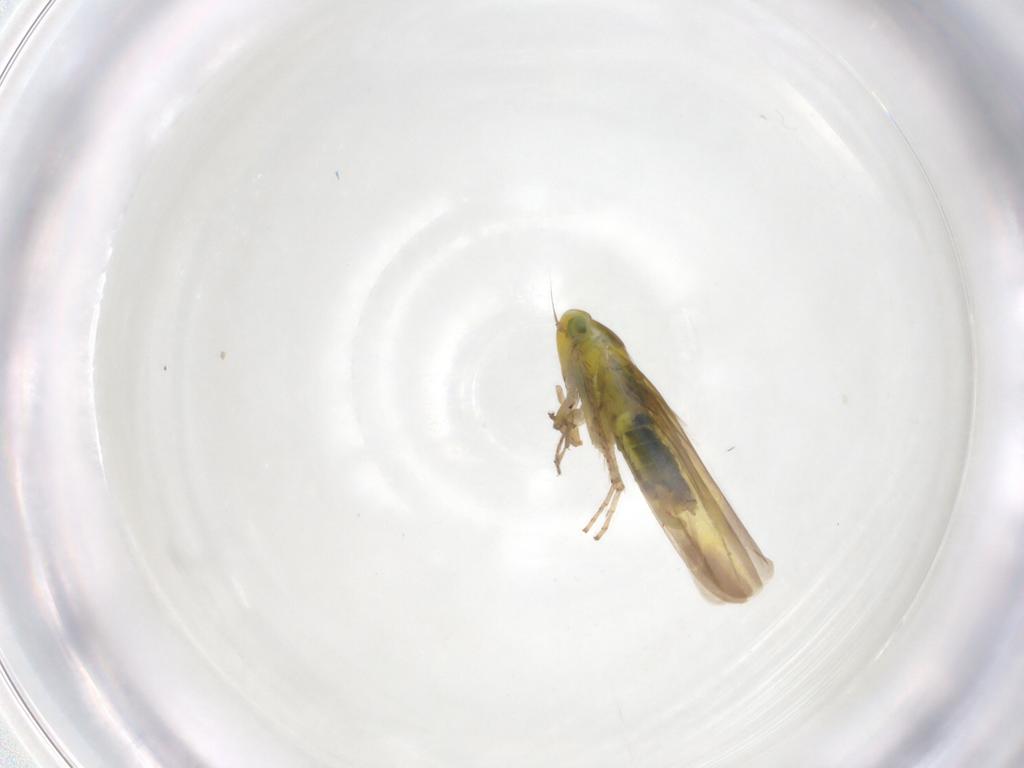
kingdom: Animalia
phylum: Arthropoda
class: Insecta
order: Hemiptera
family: Cicadellidae
